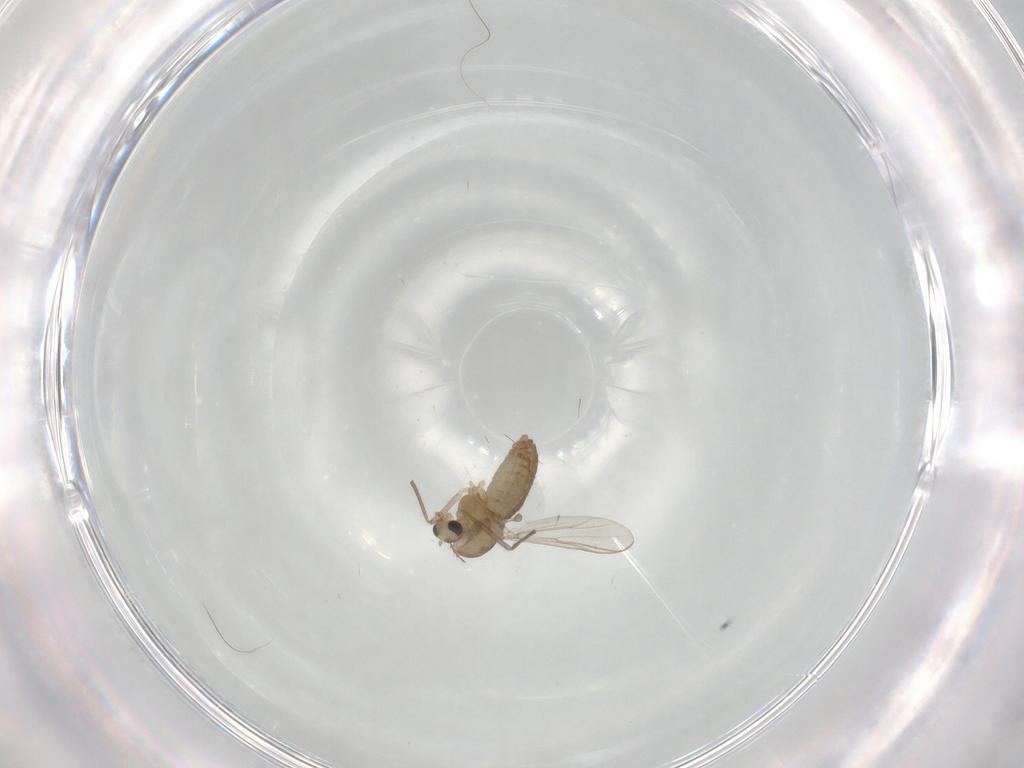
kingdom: Animalia
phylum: Arthropoda
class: Insecta
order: Diptera
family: Chironomidae
